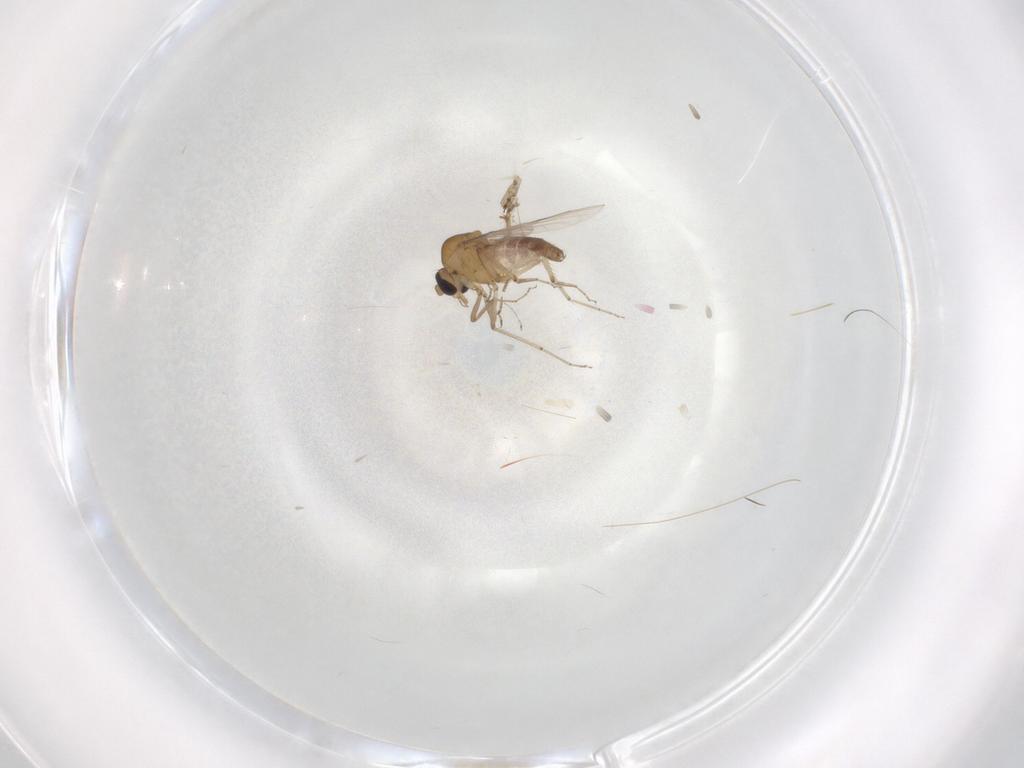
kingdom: Animalia
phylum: Arthropoda
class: Insecta
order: Diptera
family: Ceratopogonidae
